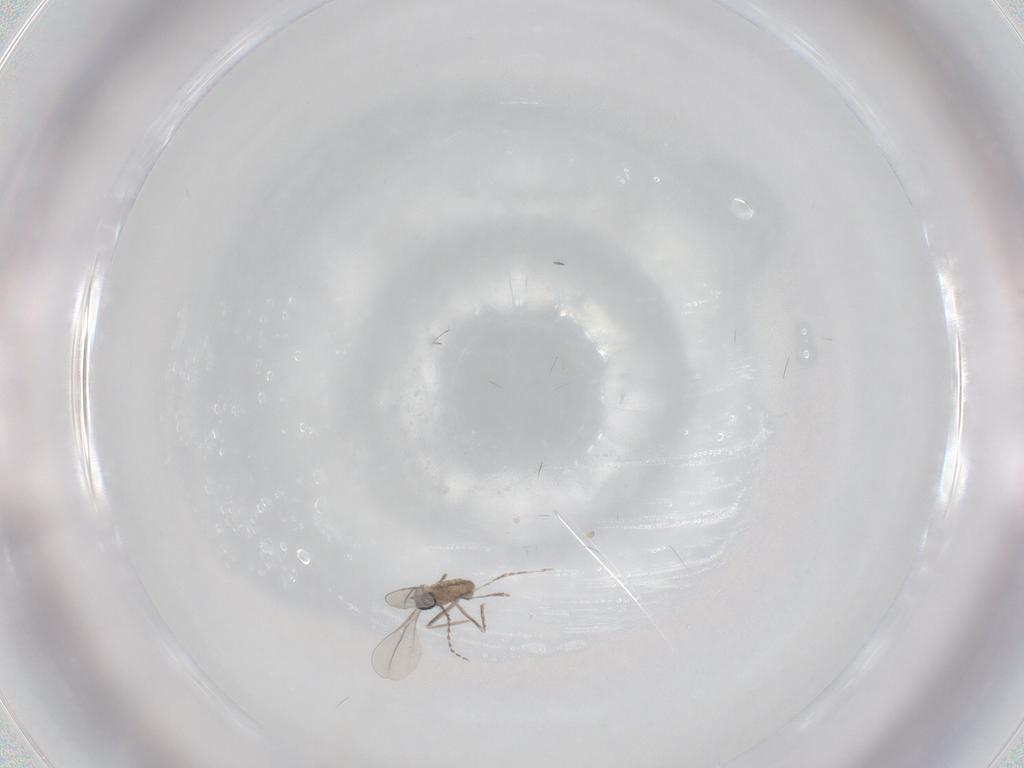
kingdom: Animalia
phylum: Arthropoda
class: Insecta
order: Diptera
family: Cecidomyiidae
